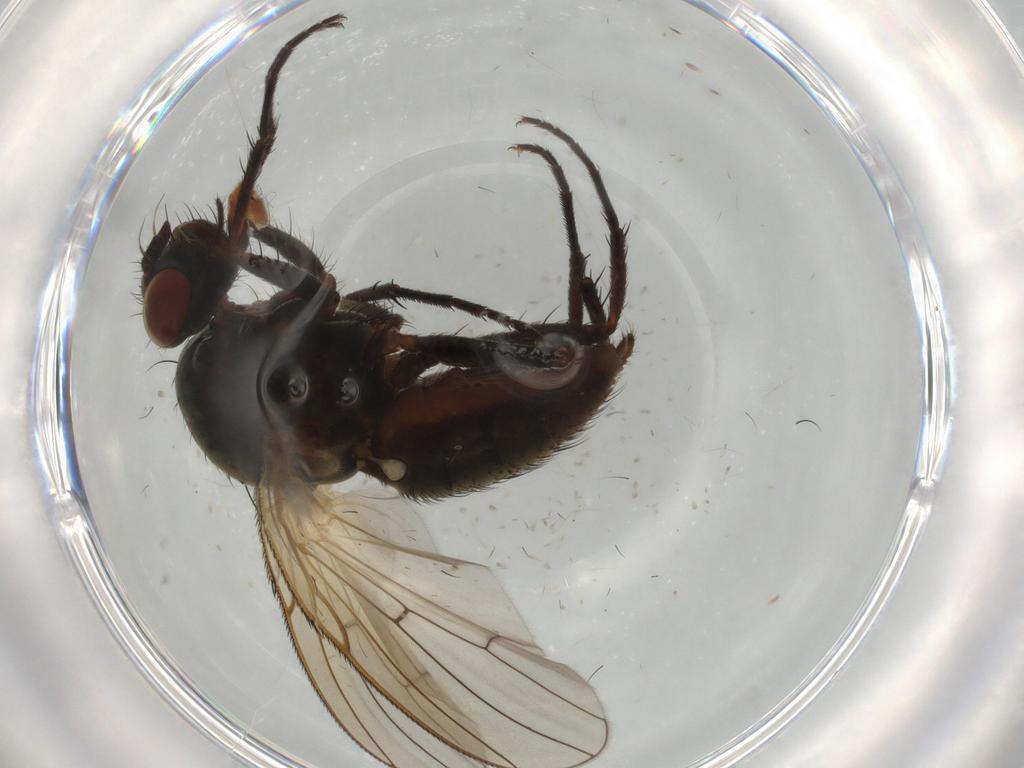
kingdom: Animalia
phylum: Arthropoda
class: Insecta
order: Diptera
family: Anthomyiidae
